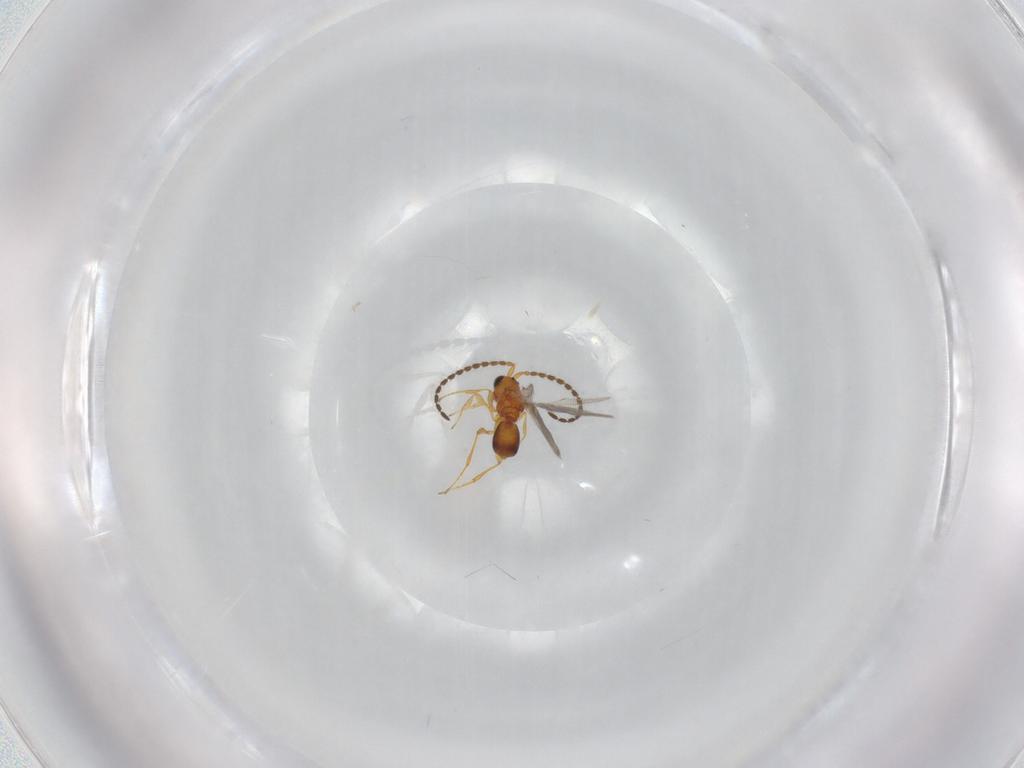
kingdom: Animalia
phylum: Arthropoda
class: Insecta
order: Hymenoptera
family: Diapriidae
